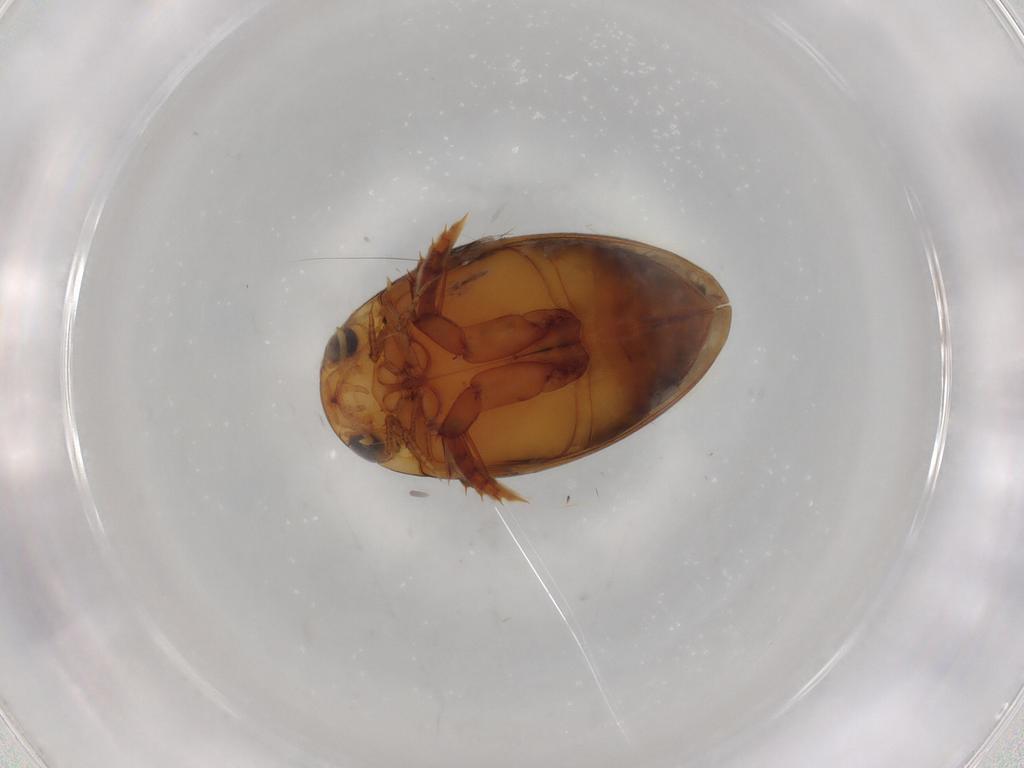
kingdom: Animalia
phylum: Arthropoda
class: Insecta
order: Coleoptera
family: Dytiscidae
